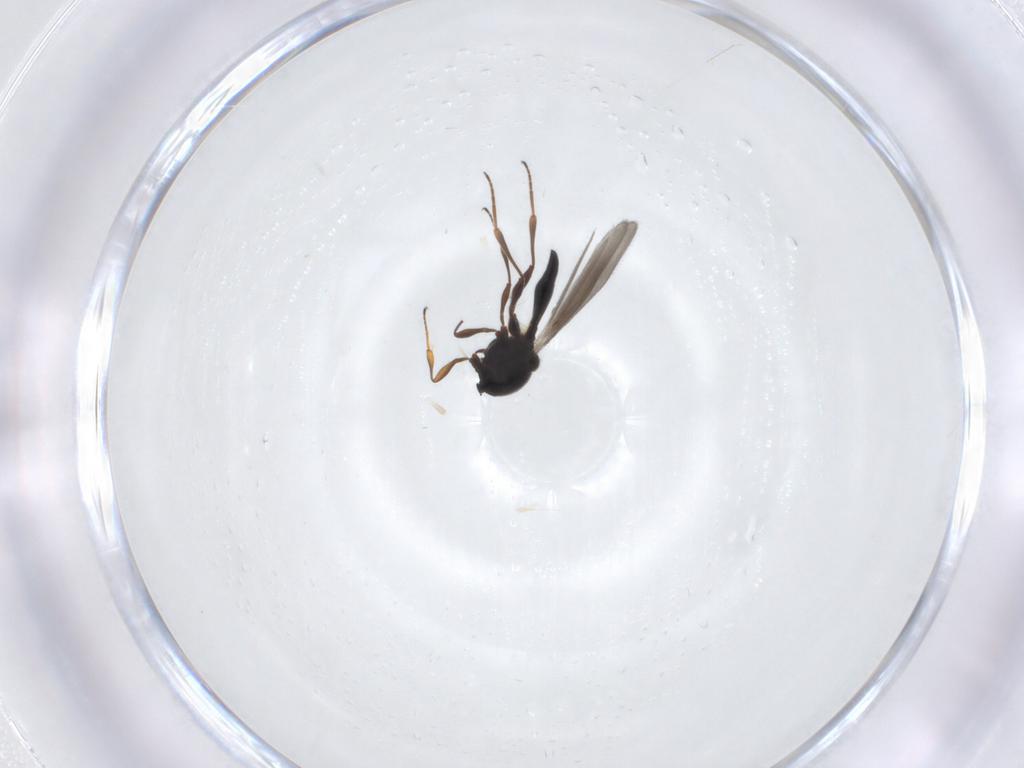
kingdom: Animalia
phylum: Arthropoda
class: Insecta
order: Hymenoptera
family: Platygastridae
